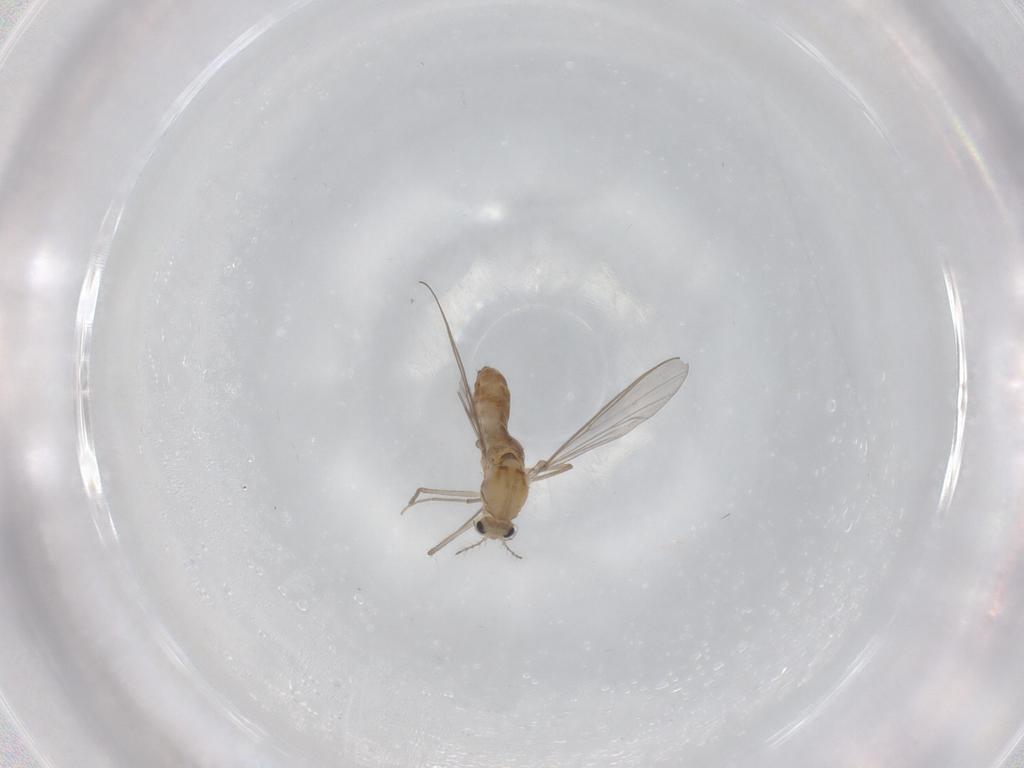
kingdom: Animalia
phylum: Arthropoda
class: Insecta
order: Diptera
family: Chironomidae
